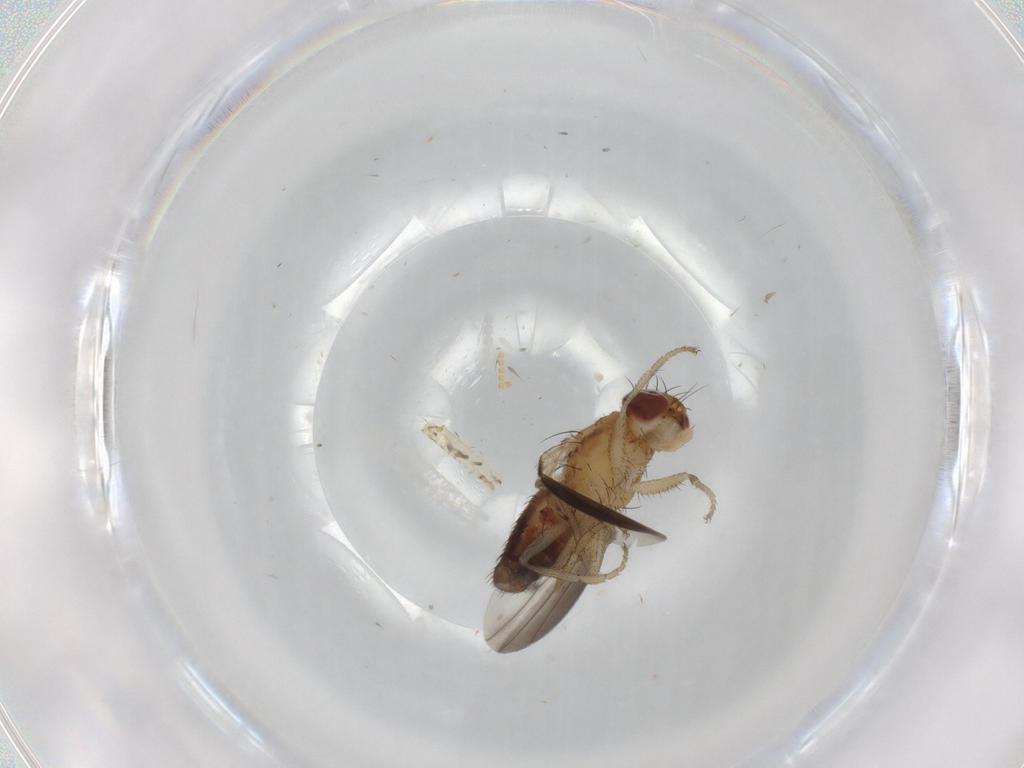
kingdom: Animalia
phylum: Arthropoda
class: Insecta
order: Diptera
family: Heleomyzidae
